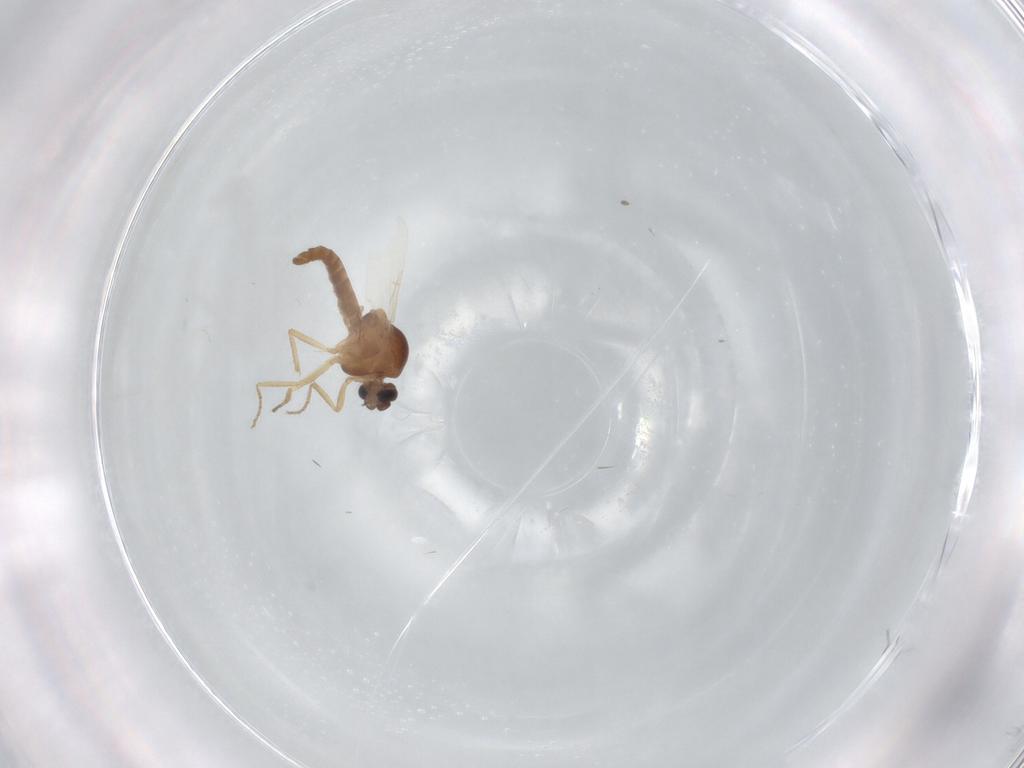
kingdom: Animalia
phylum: Arthropoda
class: Insecta
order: Diptera
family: Ceratopogonidae
